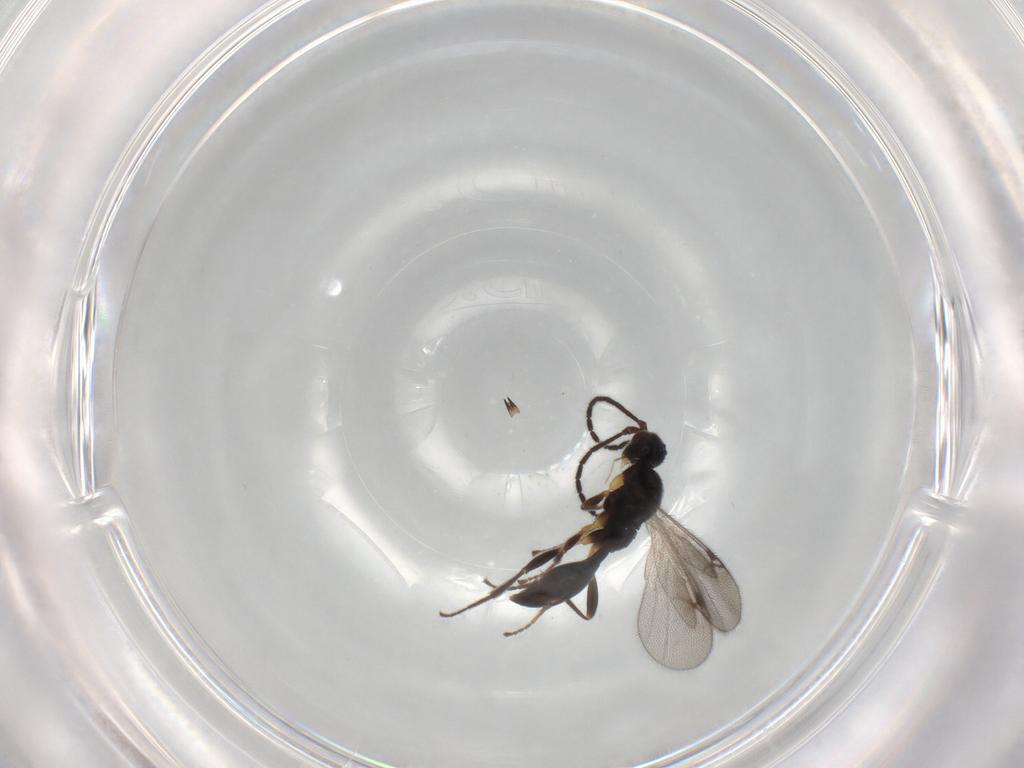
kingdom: Animalia
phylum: Arthropoda
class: Insecta
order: Hymenoptera
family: Proctotrupidae
